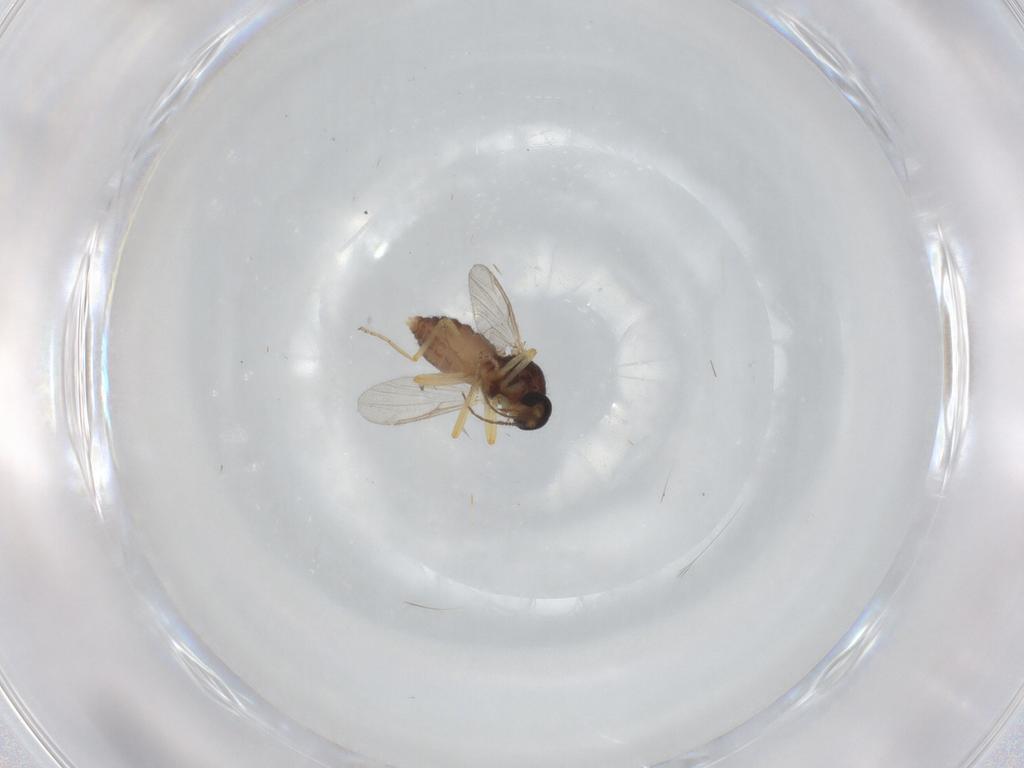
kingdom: Animalia
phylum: Arthropoda
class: Insecta
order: Diptera
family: Ceratopogonidae
